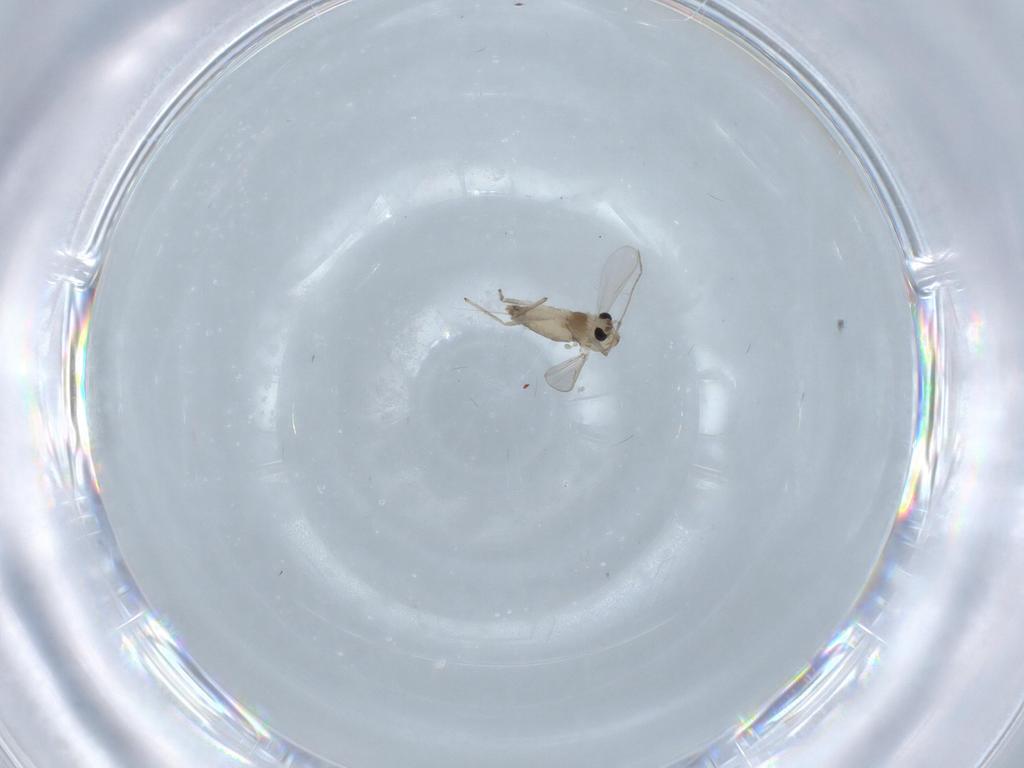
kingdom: Animalia
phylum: Arthropoda
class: Insecta
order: Diptera
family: Chironomidae
